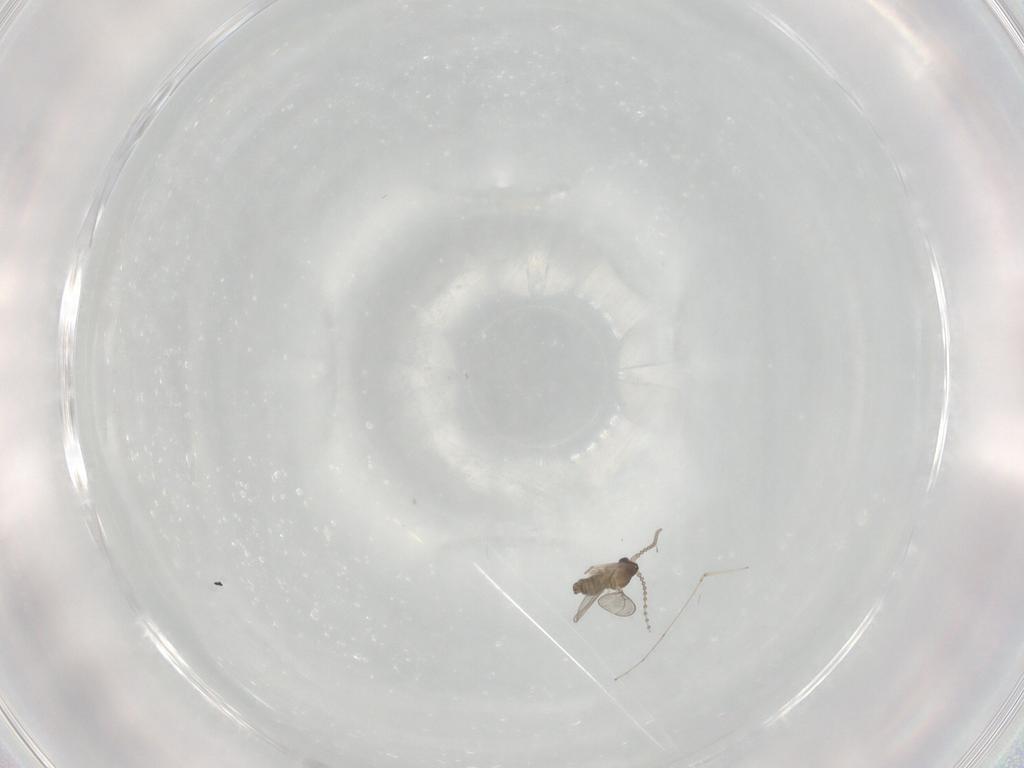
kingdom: Animalia
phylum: Arthropoda
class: Insecta
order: Diptera
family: Cecidomyiidae
